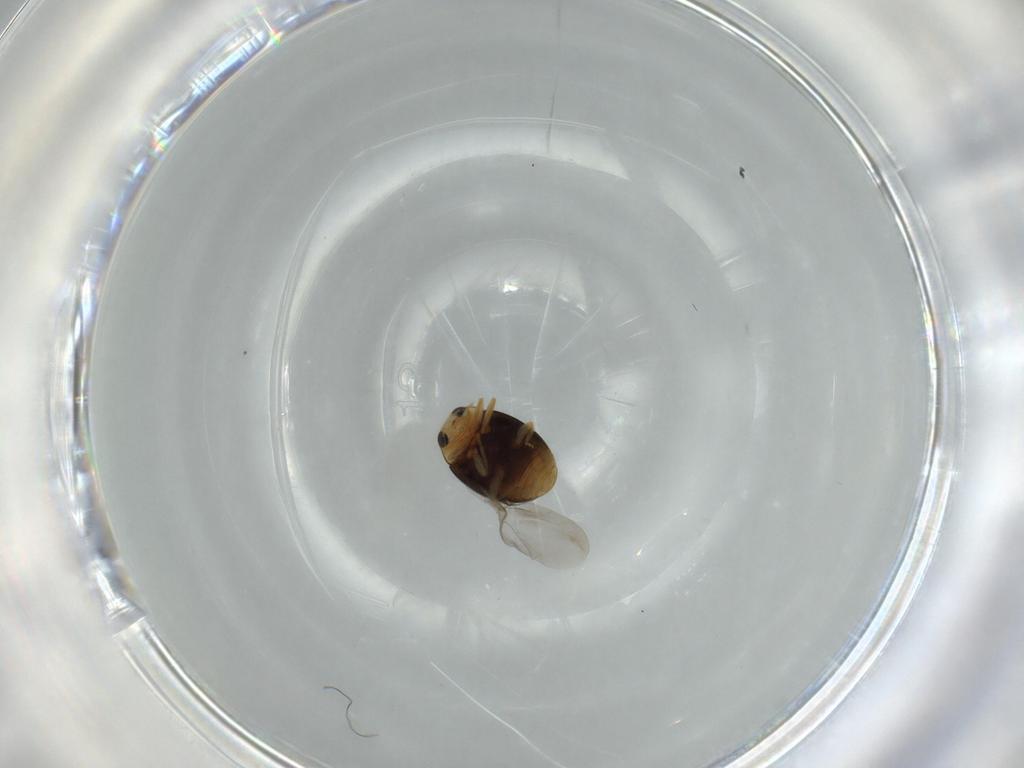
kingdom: Animalia
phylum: Arthropoda
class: Insecta
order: Coleoptera
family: Coccinellidae
